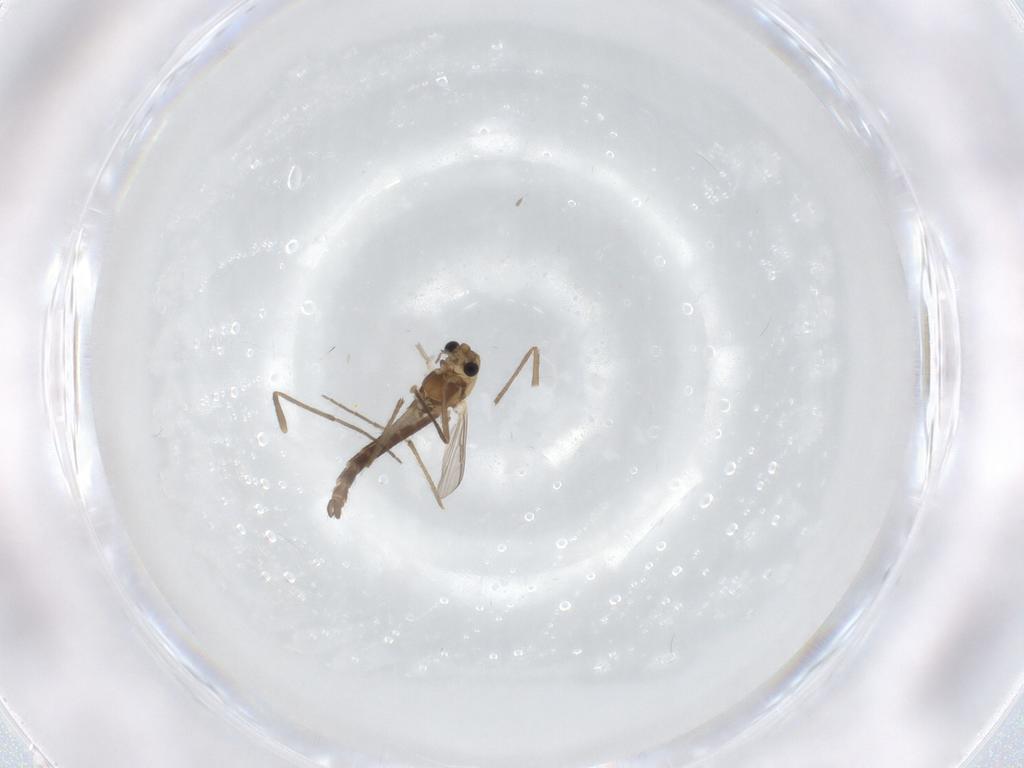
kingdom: Animalia
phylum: Arthropoda
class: Insecta
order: Diptera
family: Chironomidae
